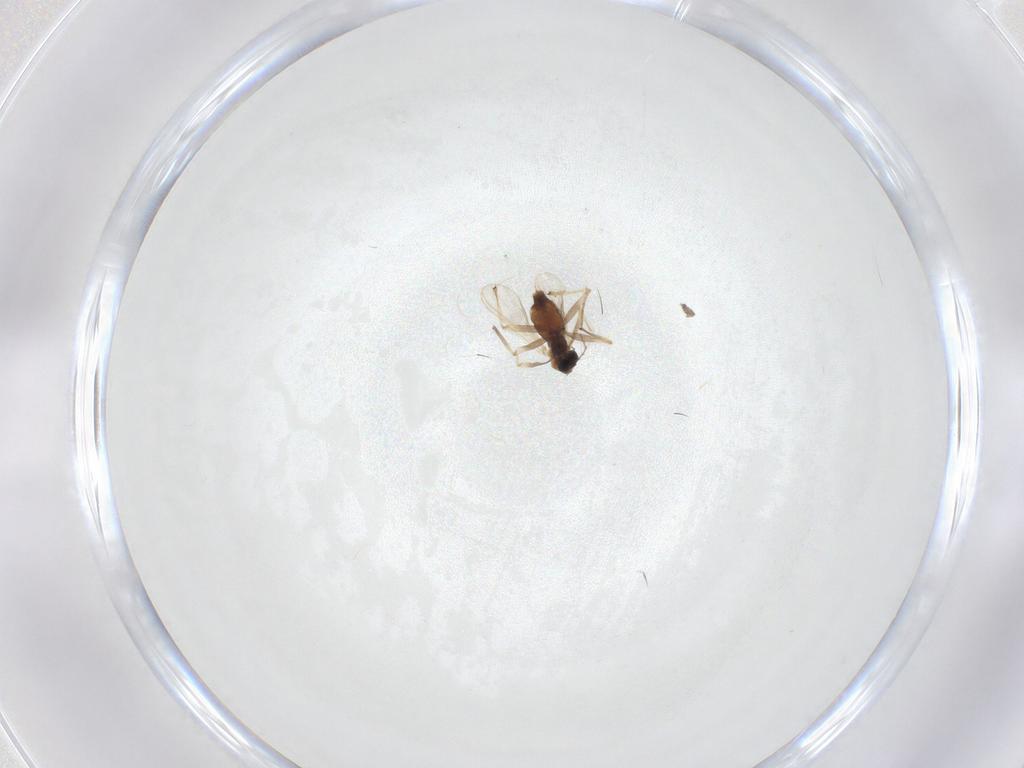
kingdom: Animalia
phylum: Arthropoda
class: Insecta
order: Diptera
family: Chironomidae
